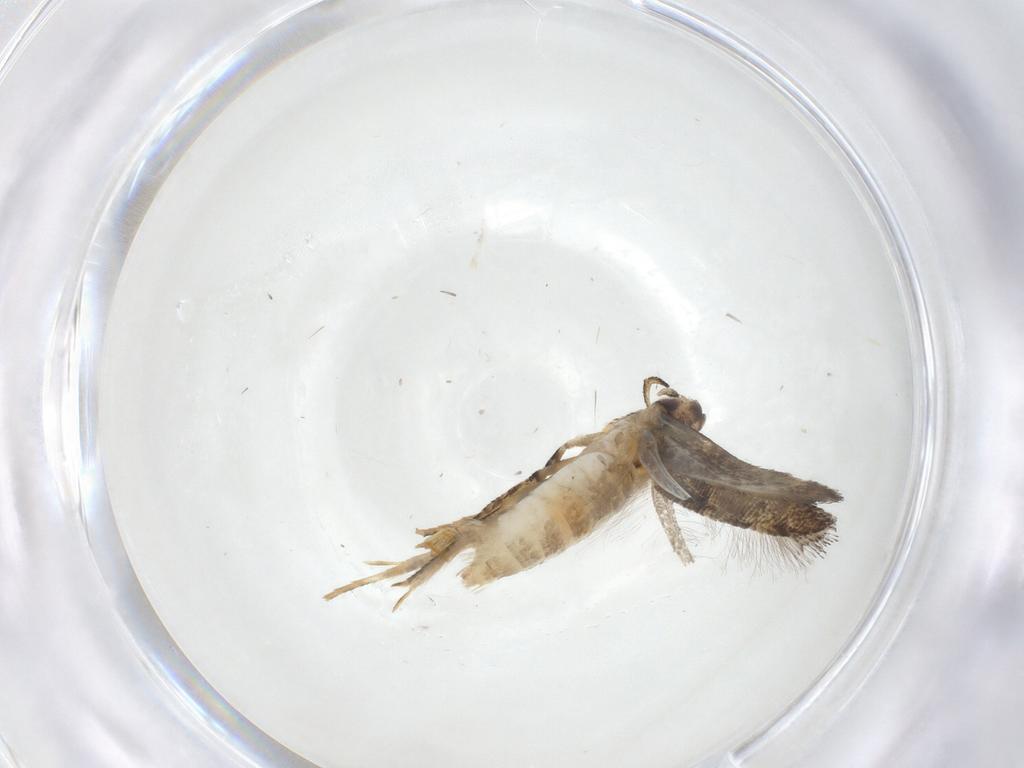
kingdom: Animalia
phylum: Arthropoda
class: Insecta
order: Lepidoptera
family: Gelechiidae
